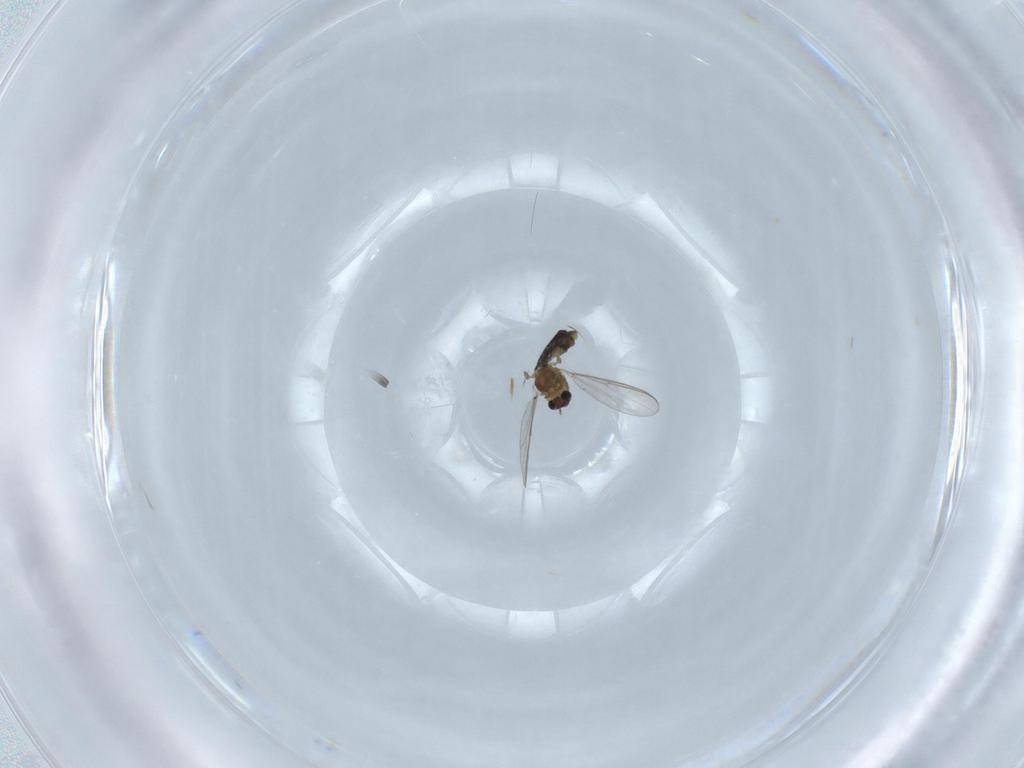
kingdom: Animalia
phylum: Arthropoda
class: Insecta
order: Diptera
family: Chironomidae
